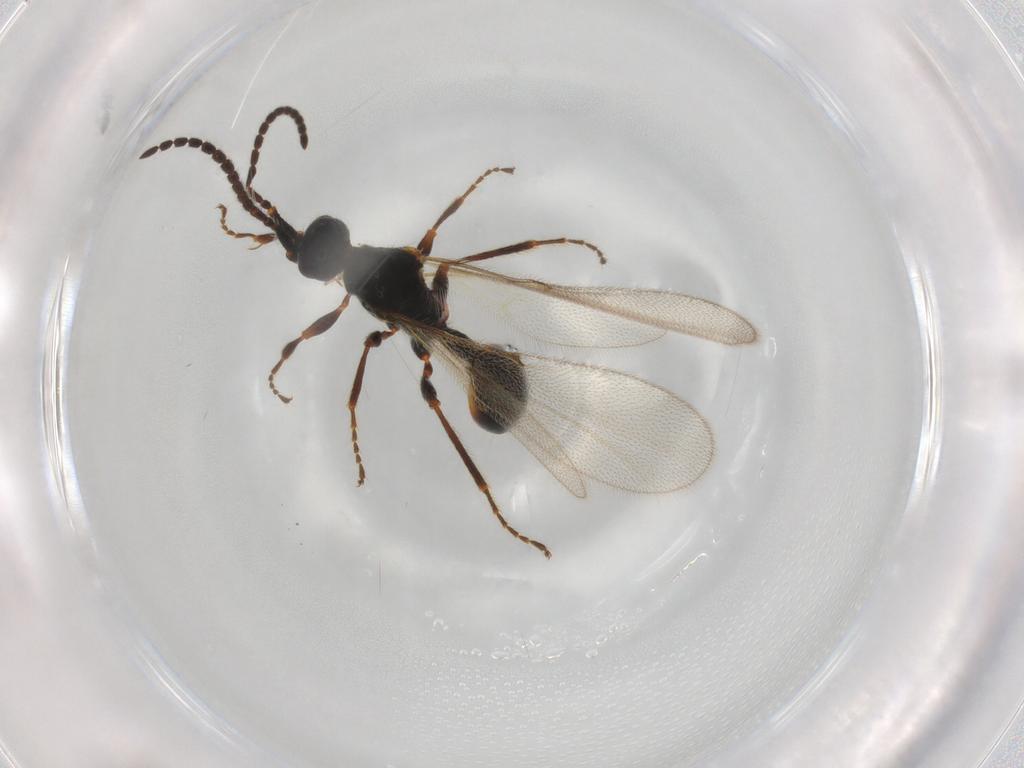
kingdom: Animalia
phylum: Arthropoda
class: Insecta
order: Hymenoptera
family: Diapriidae
